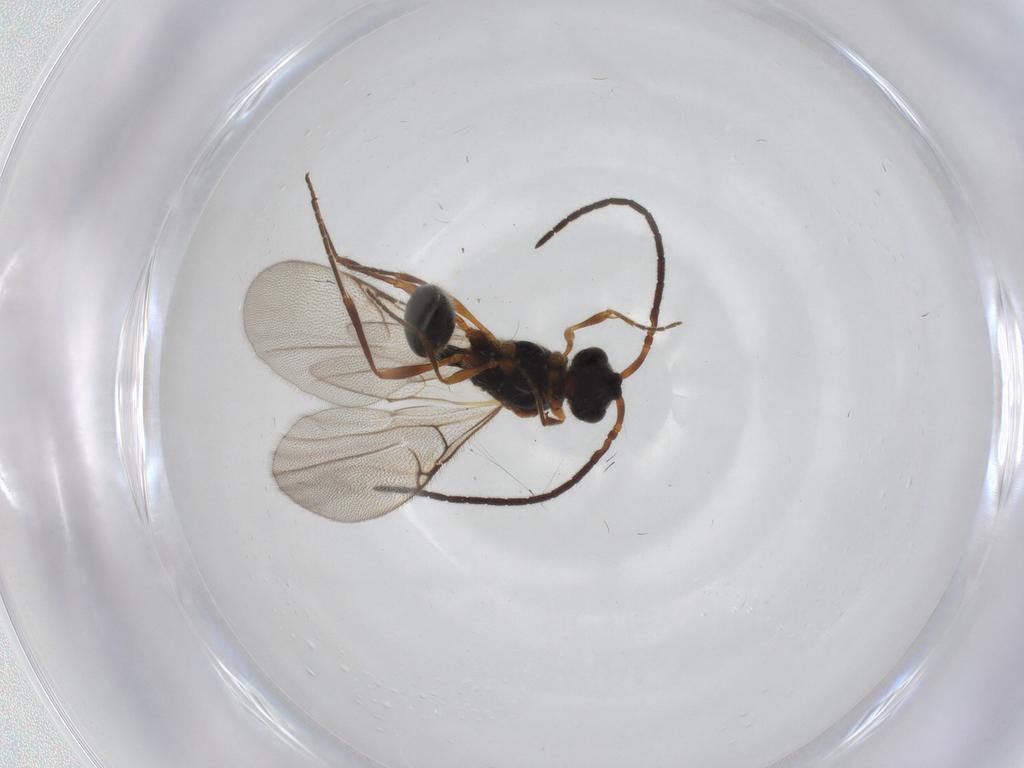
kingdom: Animalia
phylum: Arthropoda
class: Insecta
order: Hymenoptera
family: Diapriidae
